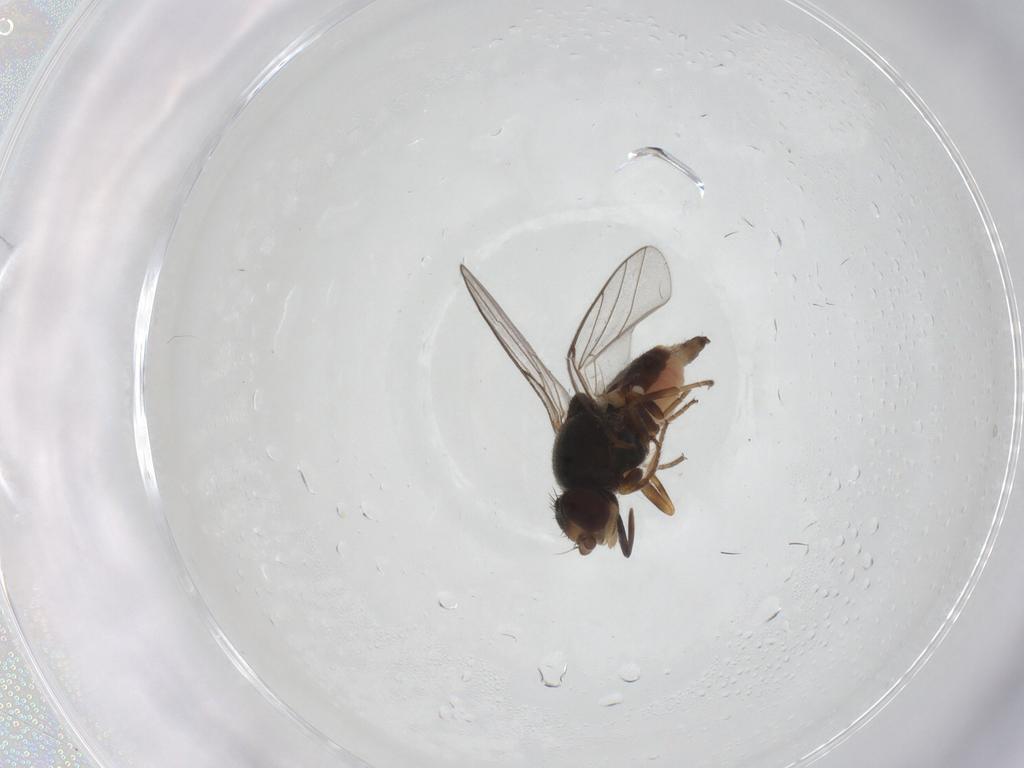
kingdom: Animalia
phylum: Arthropoda
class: Insecta
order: Diptera
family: Chloropidae
